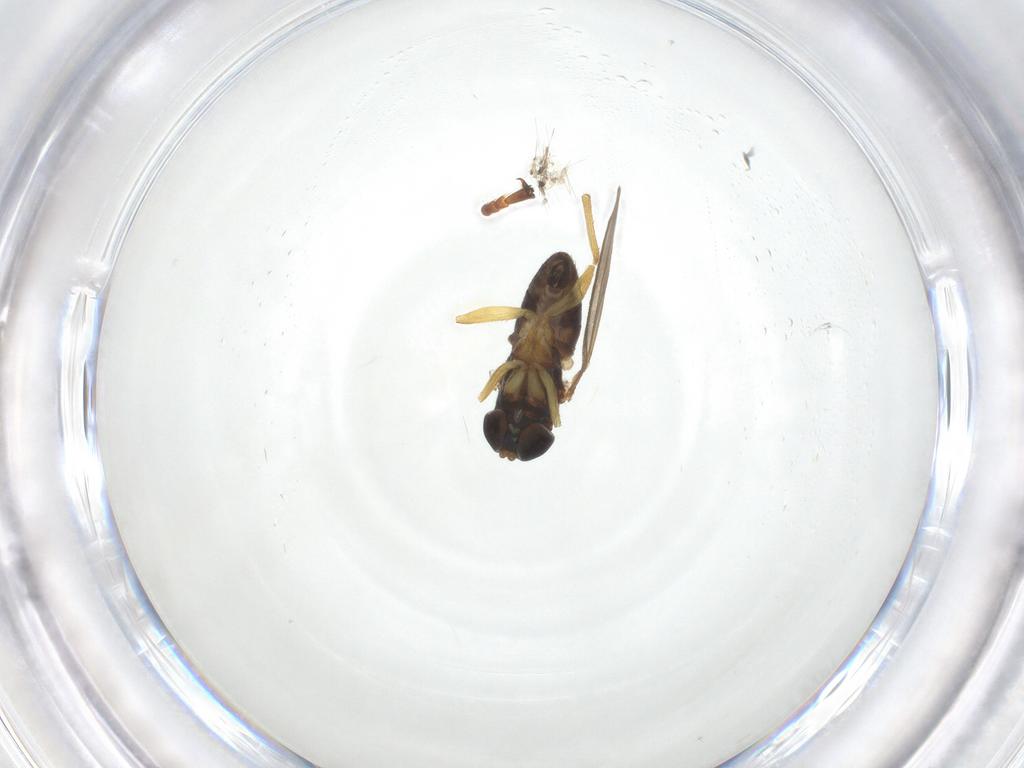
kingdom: Animalia
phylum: Arthropoda
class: Insecta
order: Diptera
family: Dolichopodidae
